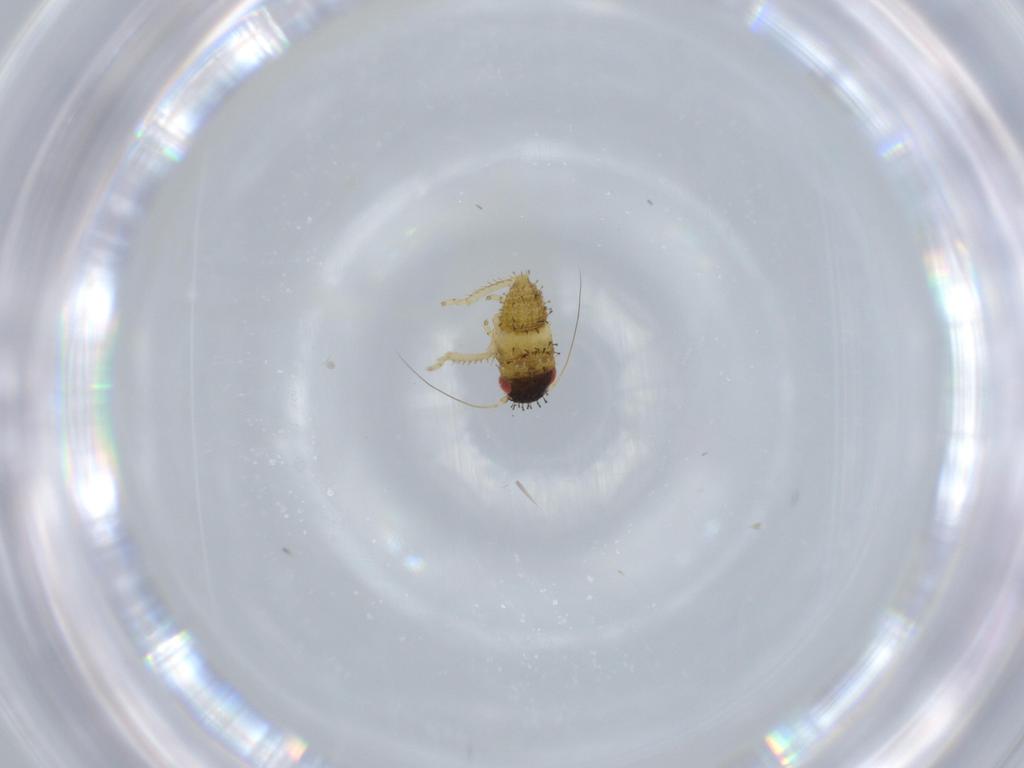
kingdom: Animalia
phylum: Arthropoda
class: Insecta
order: Hemiptera
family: Cicadellidae
